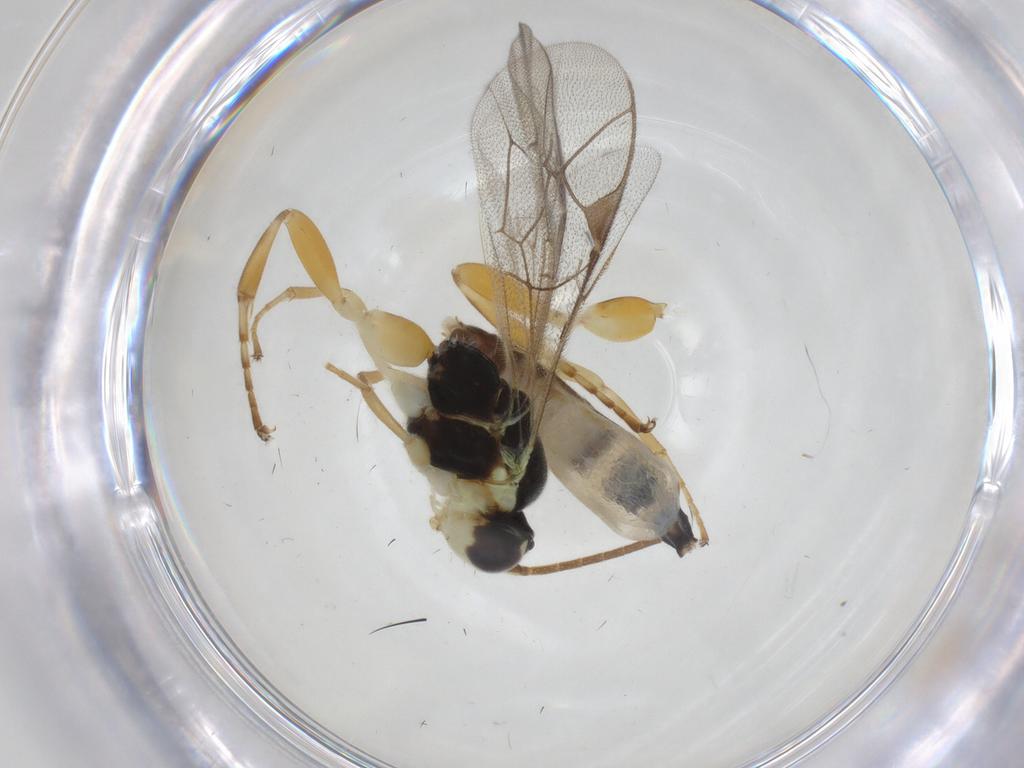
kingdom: Animalia
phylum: Arthropoda
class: Insecta
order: Hymenoptera
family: Ichneumonidae
